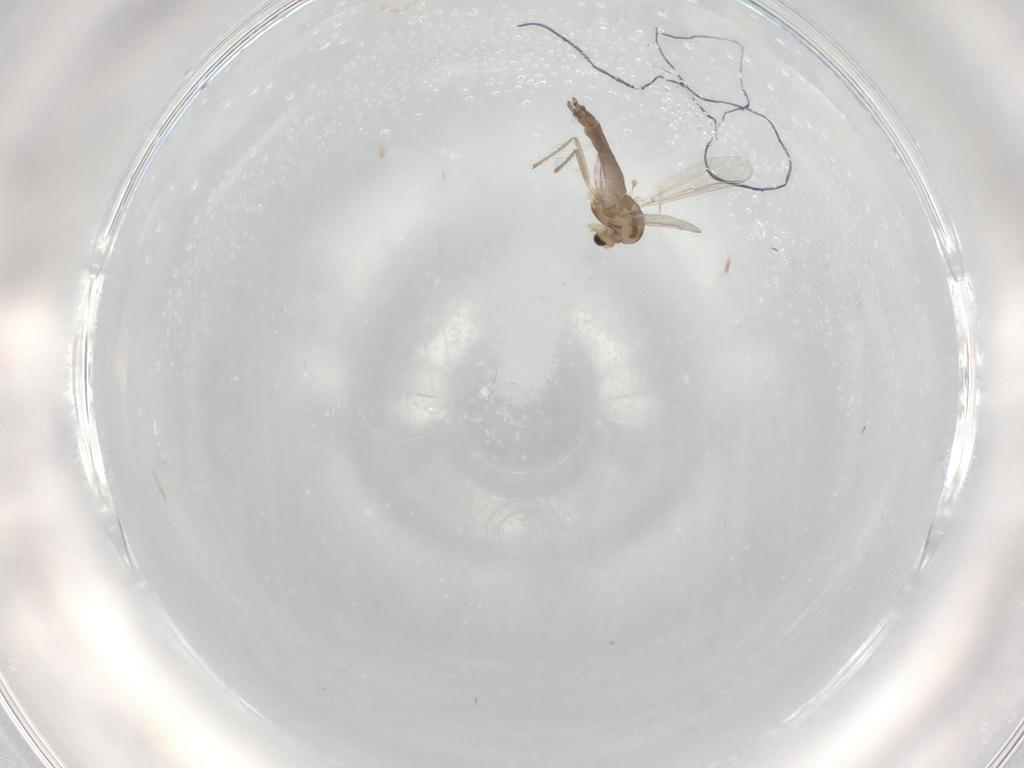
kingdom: Animalia
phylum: Arthropoda
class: Insecta
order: Diptera
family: Chironomidae
